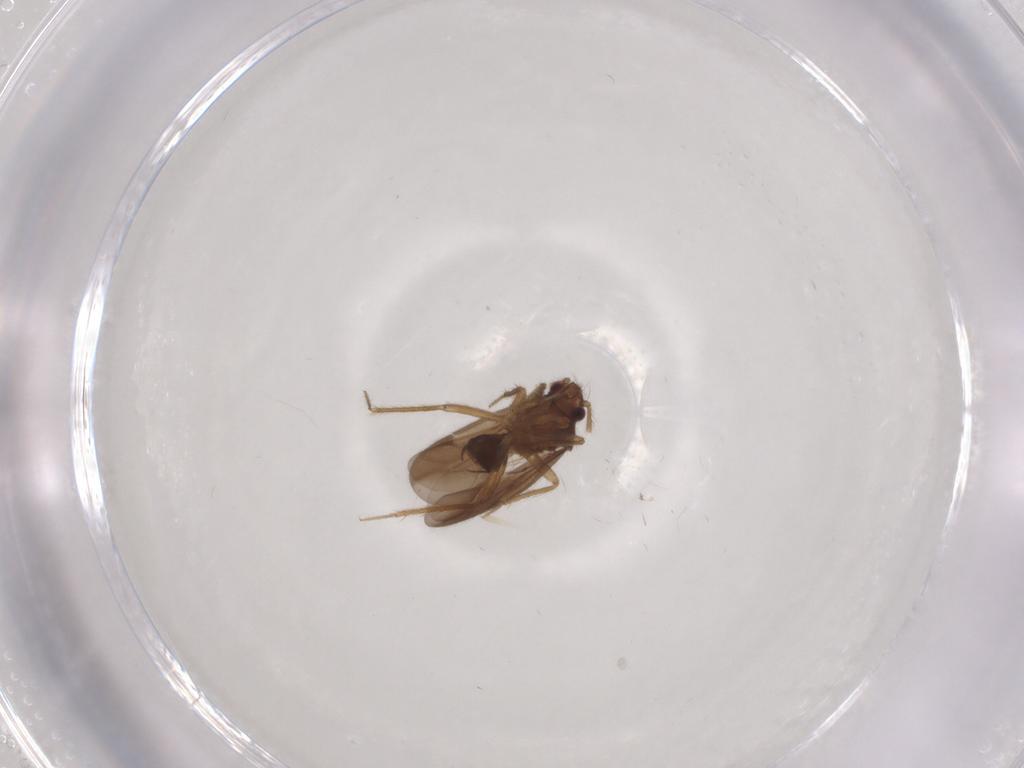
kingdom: Animalia
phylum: Arthropoda
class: Insecta
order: Hemiptera
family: Ceratocombidae
